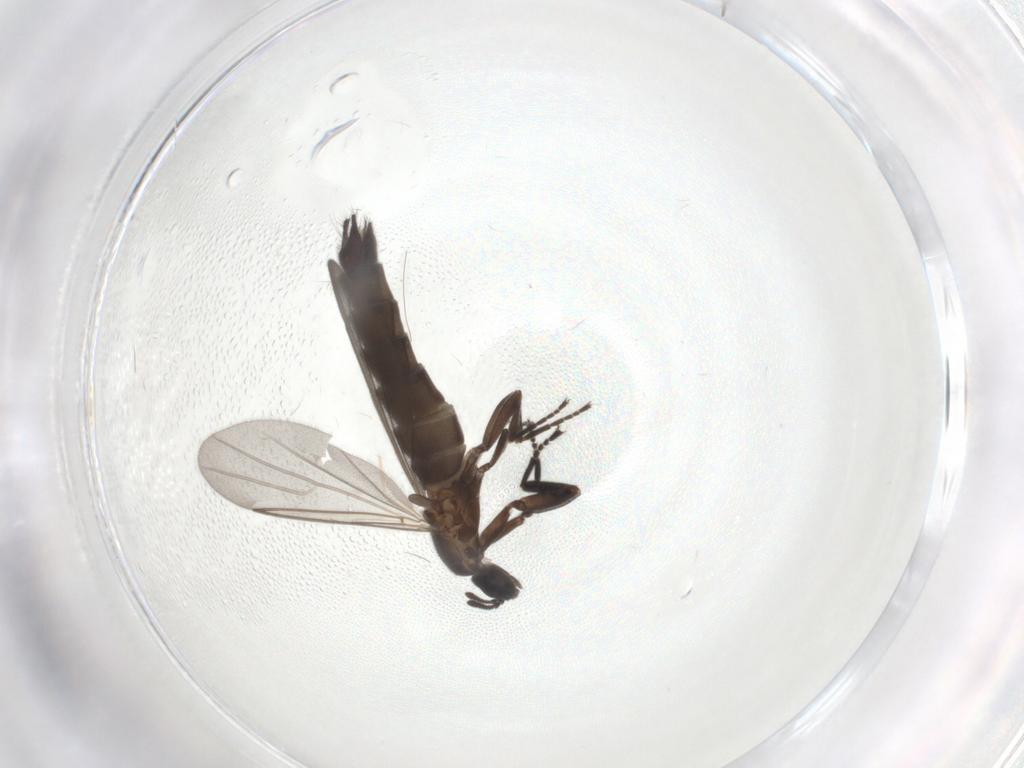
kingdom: Animalia
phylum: Arthropoda
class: Insecta
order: Diptera
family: Scatopsidae
